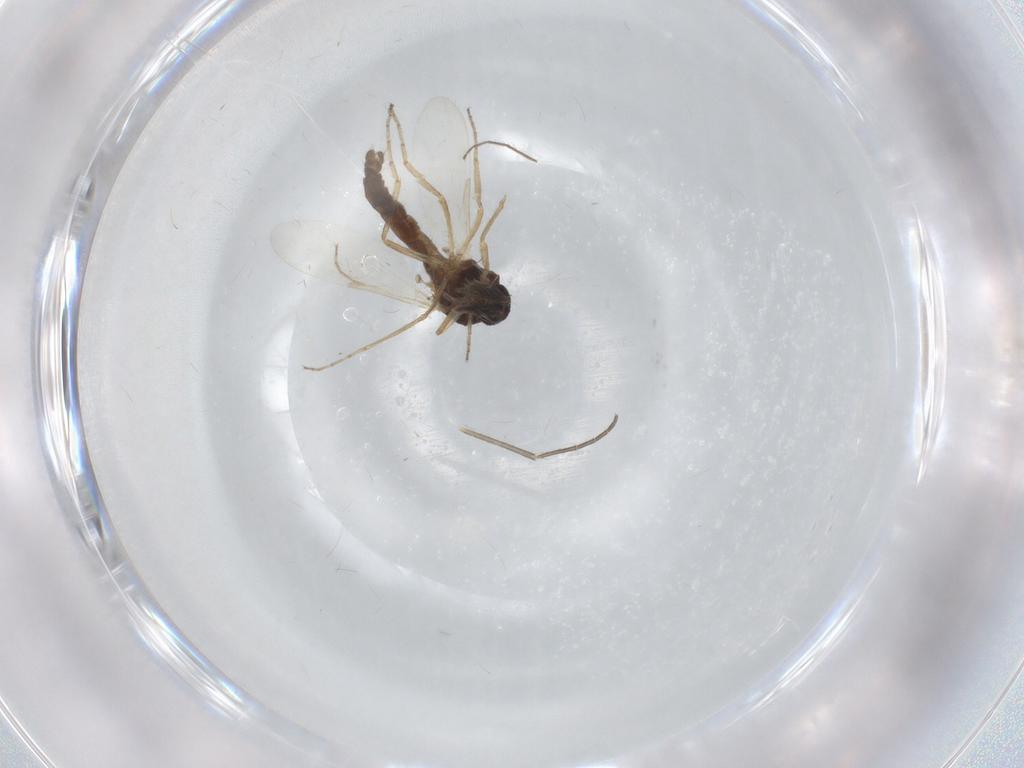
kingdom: Animalia
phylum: Arthropoda
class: Insecta
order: Diptera
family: Ceratopogonidae
